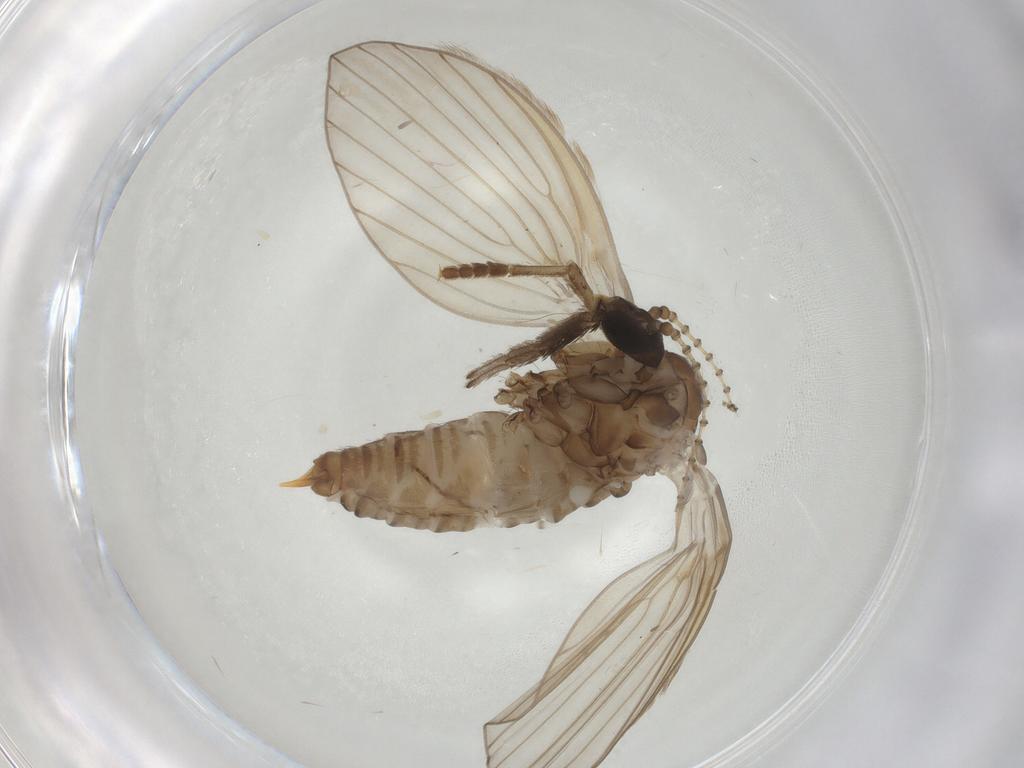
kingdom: Animalia
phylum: Arthropoda
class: Insecta
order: Diptera
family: Psychodidae
